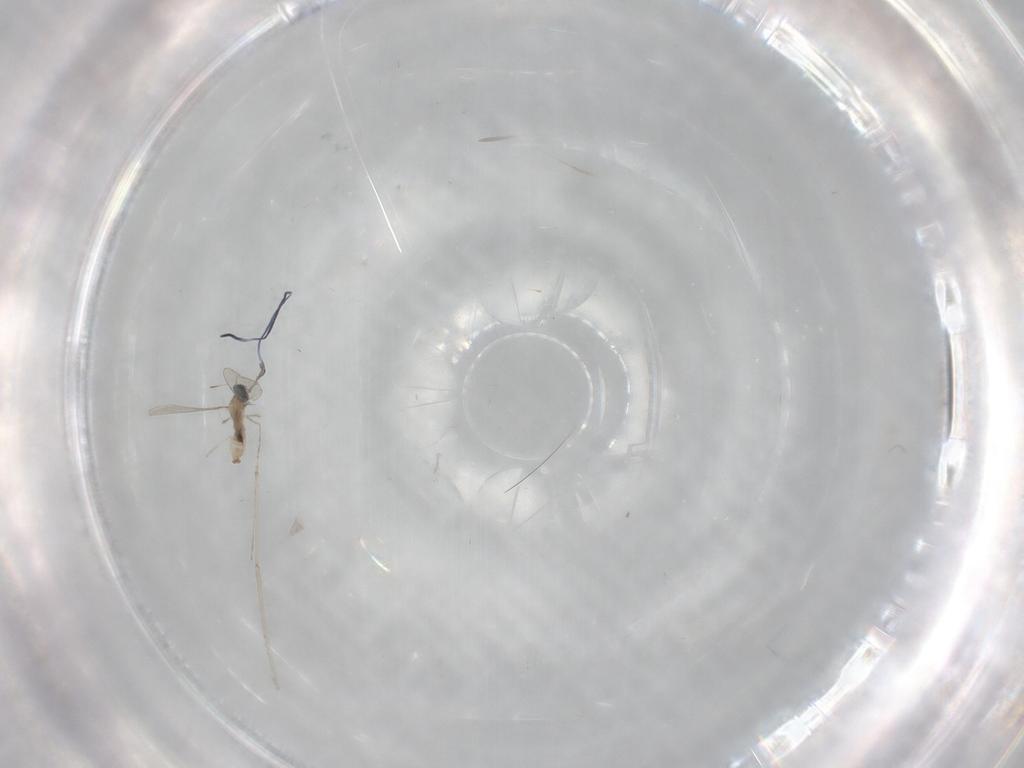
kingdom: Animalia
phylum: Arthropoda
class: Insecta
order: Diptera
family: Cecidomyiidae
